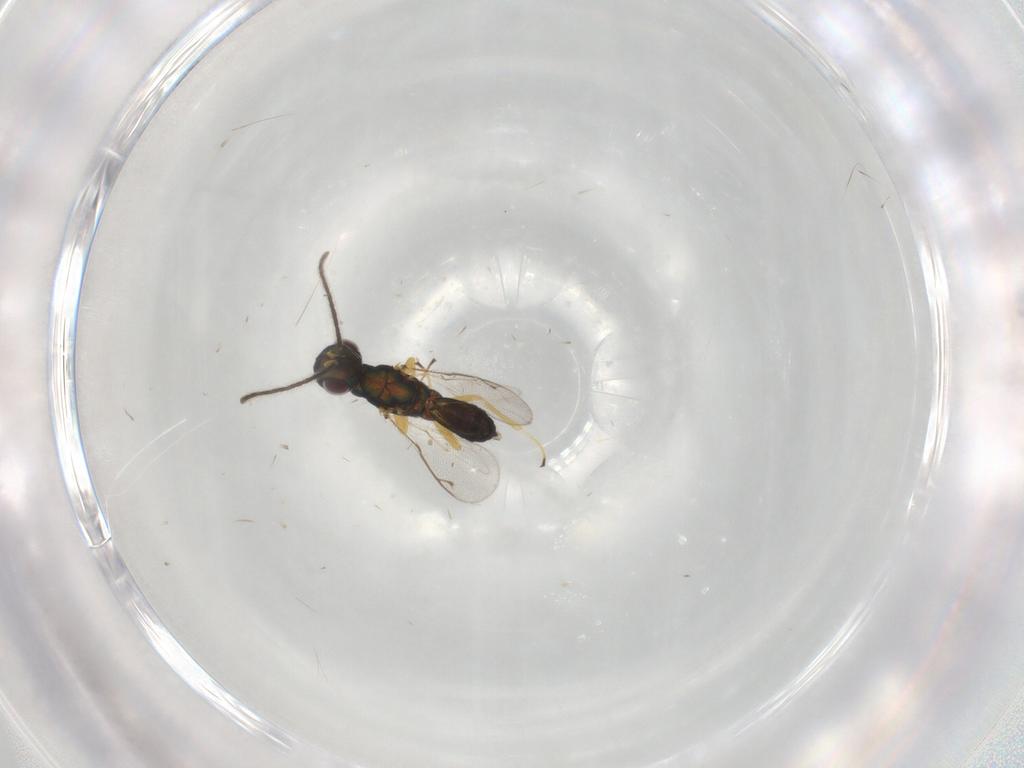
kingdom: Animalia
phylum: Arthropoda
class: Insecta
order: Hymenoptera
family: Eupelmidae
